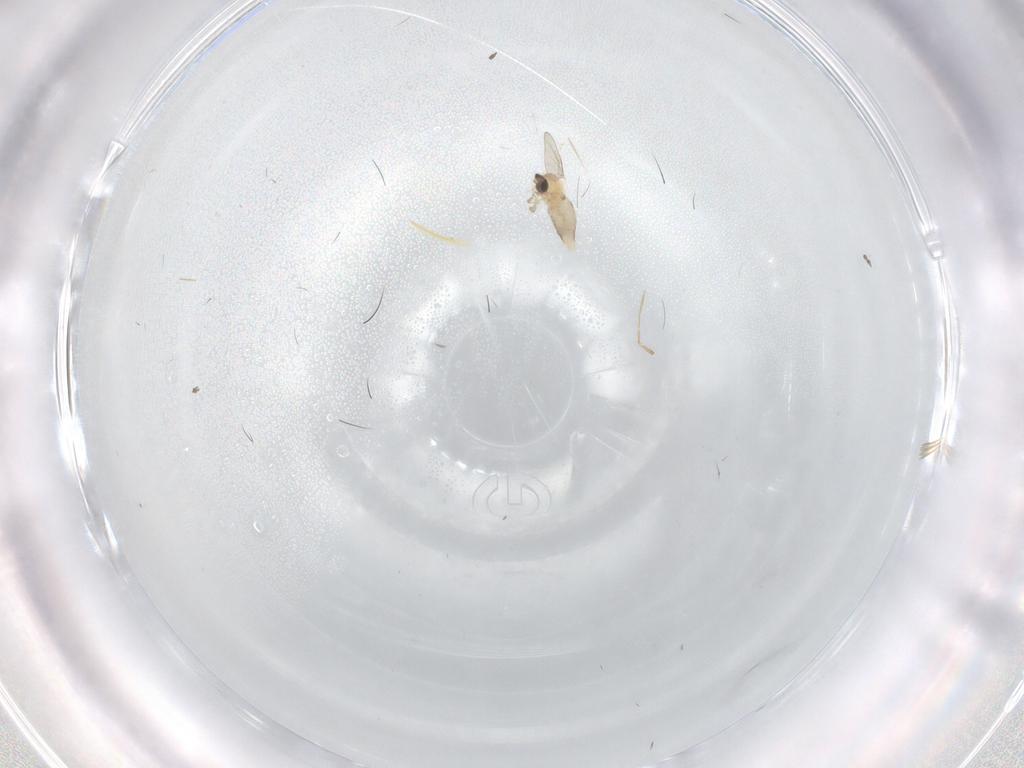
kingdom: Animalia
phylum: Arthropoda
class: Insecta
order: Diptera
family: Cecidomyiidae
